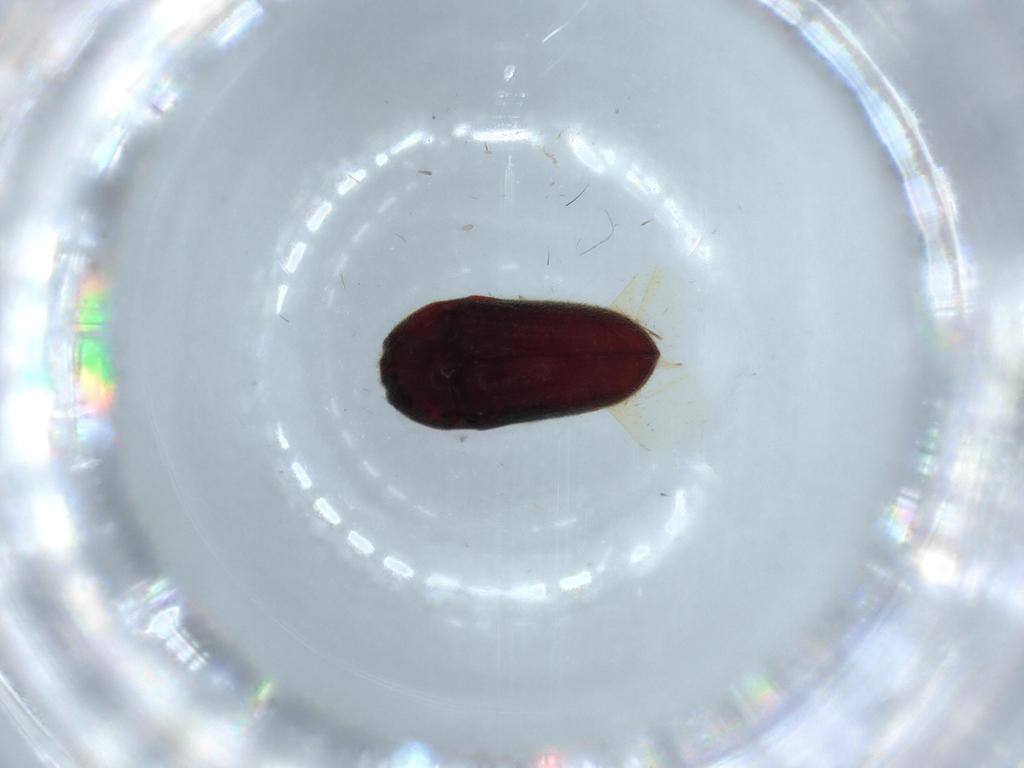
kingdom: Animalia
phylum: Arthropoda
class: Insecta
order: Coleoptera
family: Throscidae
